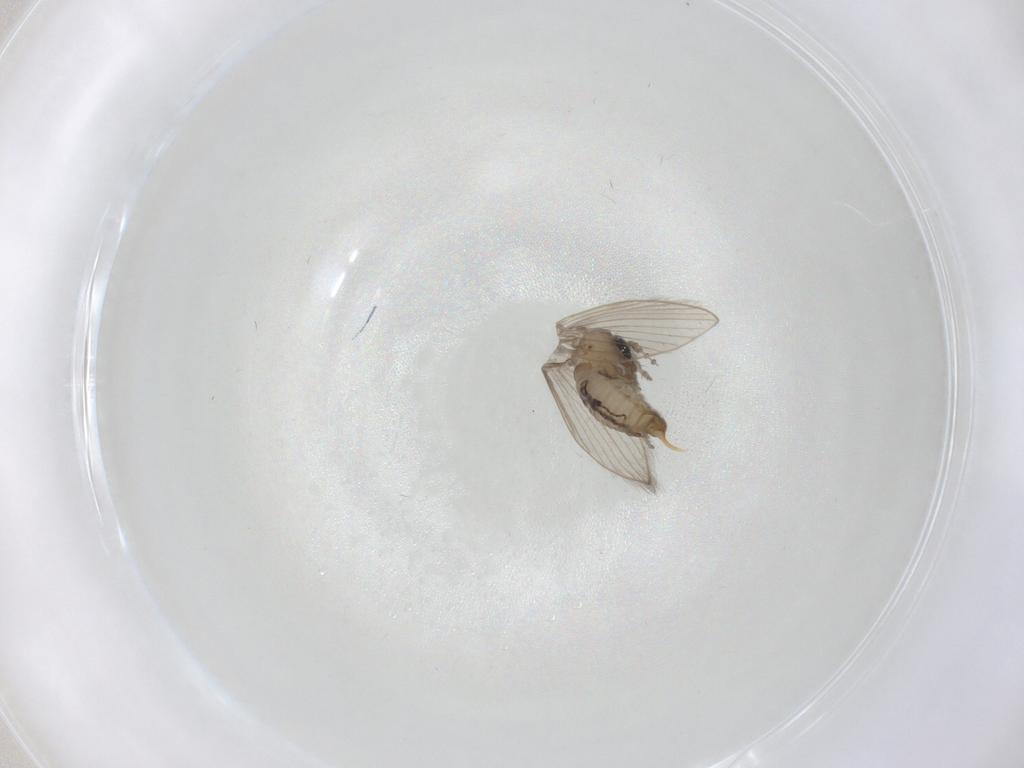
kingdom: Animalia
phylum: Arthropoda
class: Insecta
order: Diptera
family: Psychodidae
